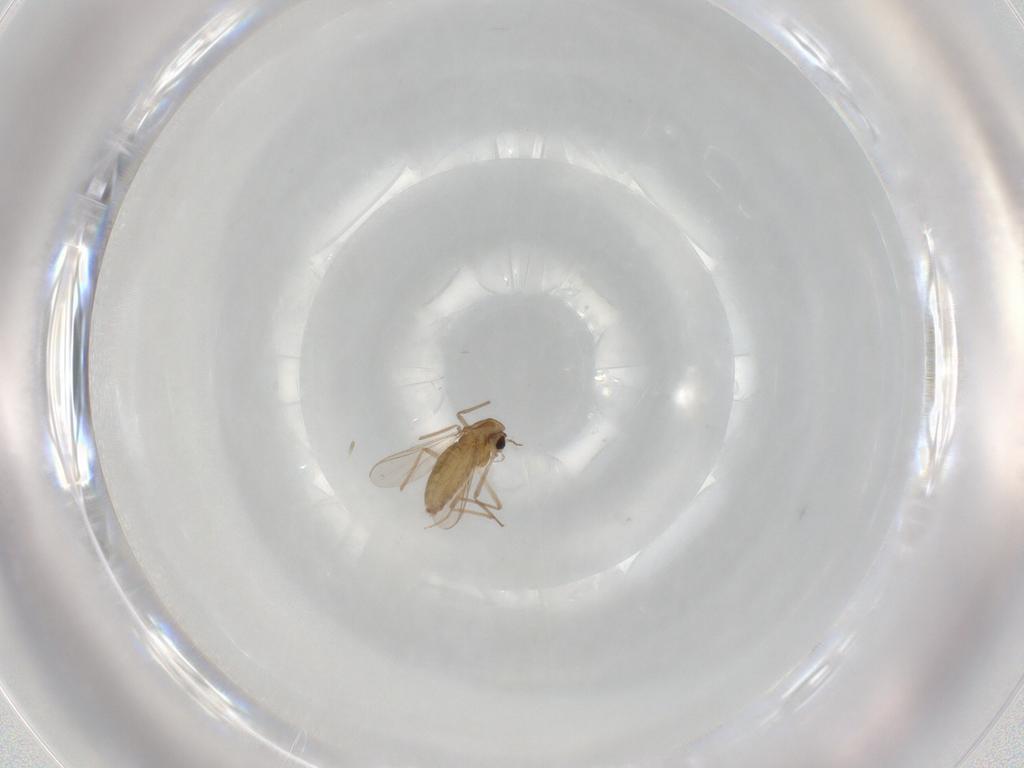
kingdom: Animalia
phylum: Arthropoda
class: Insecta
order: Diptera
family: Chironomidae
